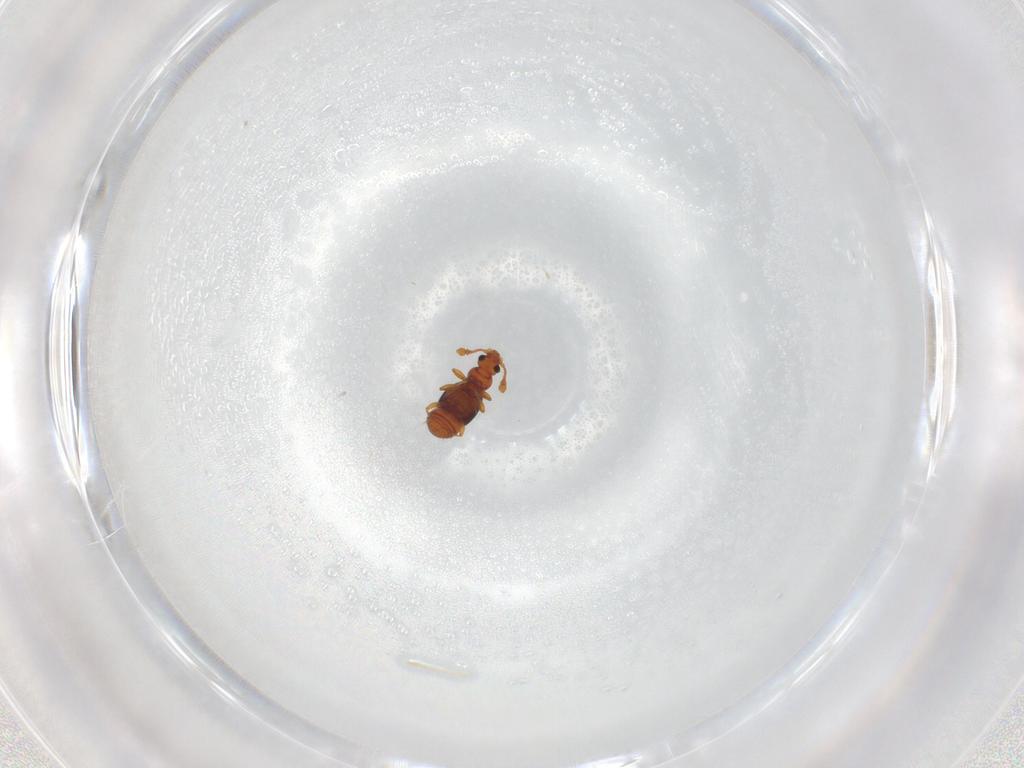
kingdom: Animalia
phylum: Arthropoda
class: Insecta
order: Coleoptera
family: Staphylinidae
